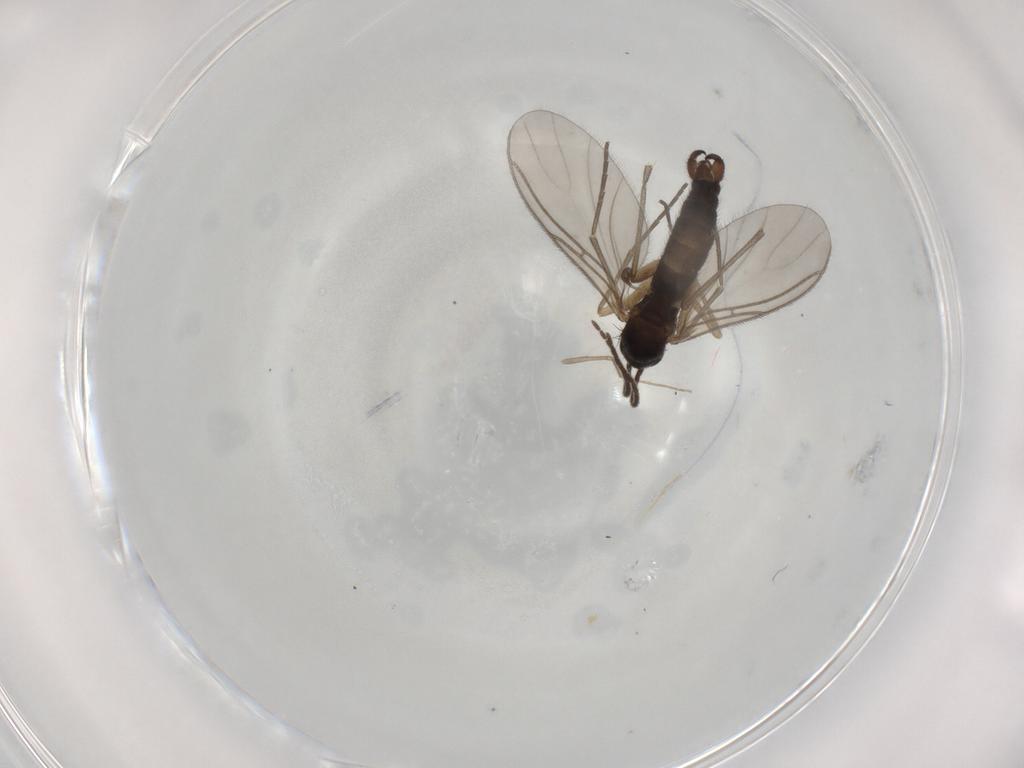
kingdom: Animalia
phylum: Arthropoda
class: Insecta
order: Diptera
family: Sciaridae
